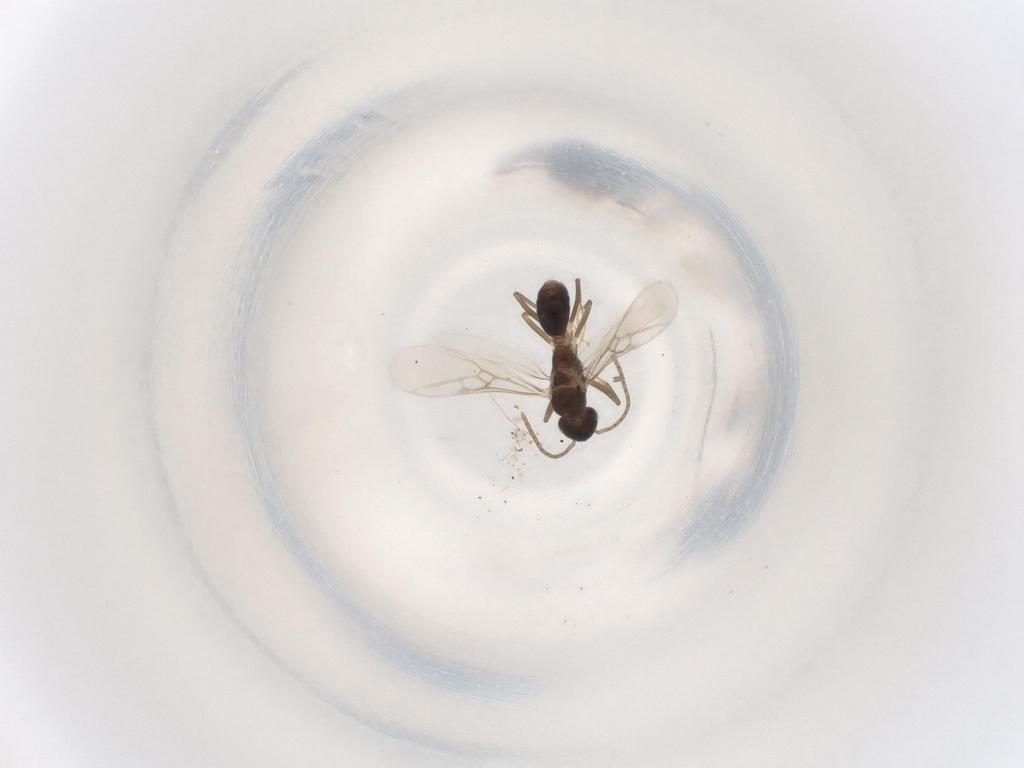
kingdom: Animalia
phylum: Arthropoda
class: Insecta
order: Hymenoptera
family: Formicidae
